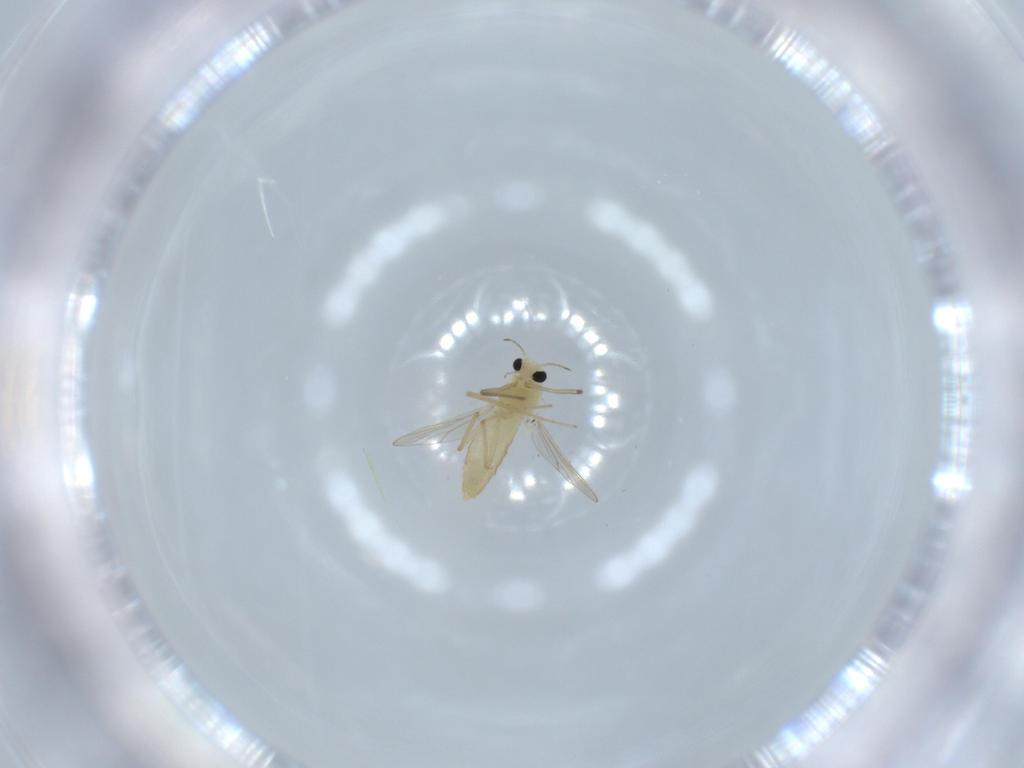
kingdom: Animalia
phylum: Arthropoda
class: Insecta
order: Diptera
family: Chironomidae
